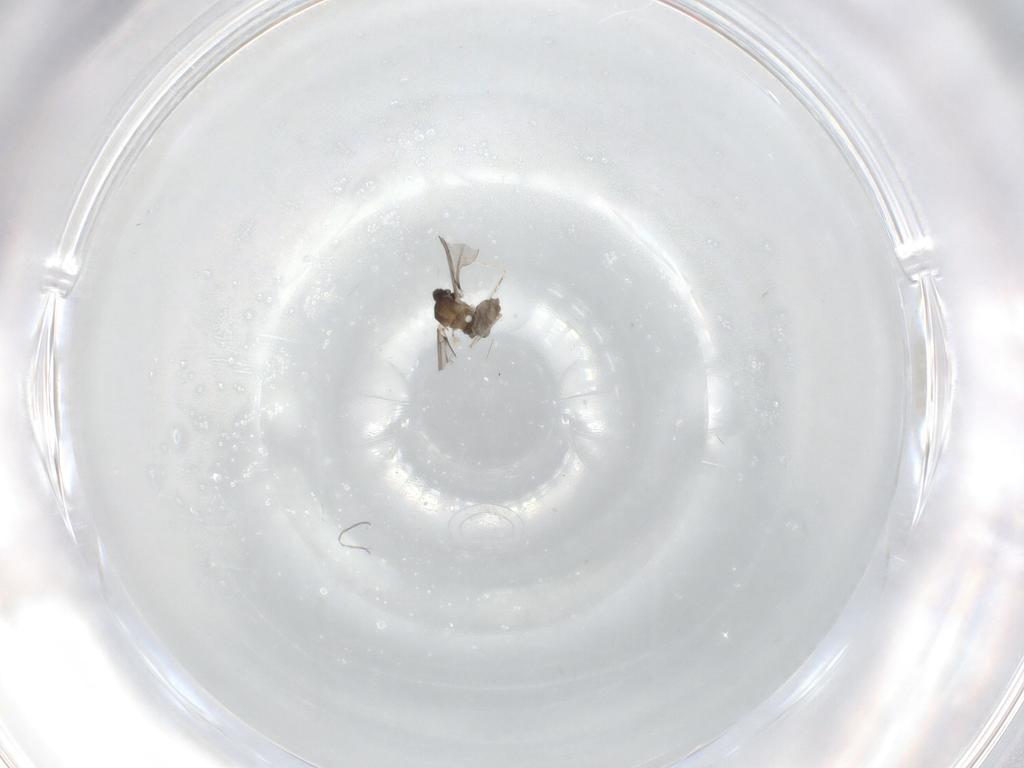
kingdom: Animalia
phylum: Arthropoda
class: Insecta
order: Diptera
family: Cecidomyiidae
